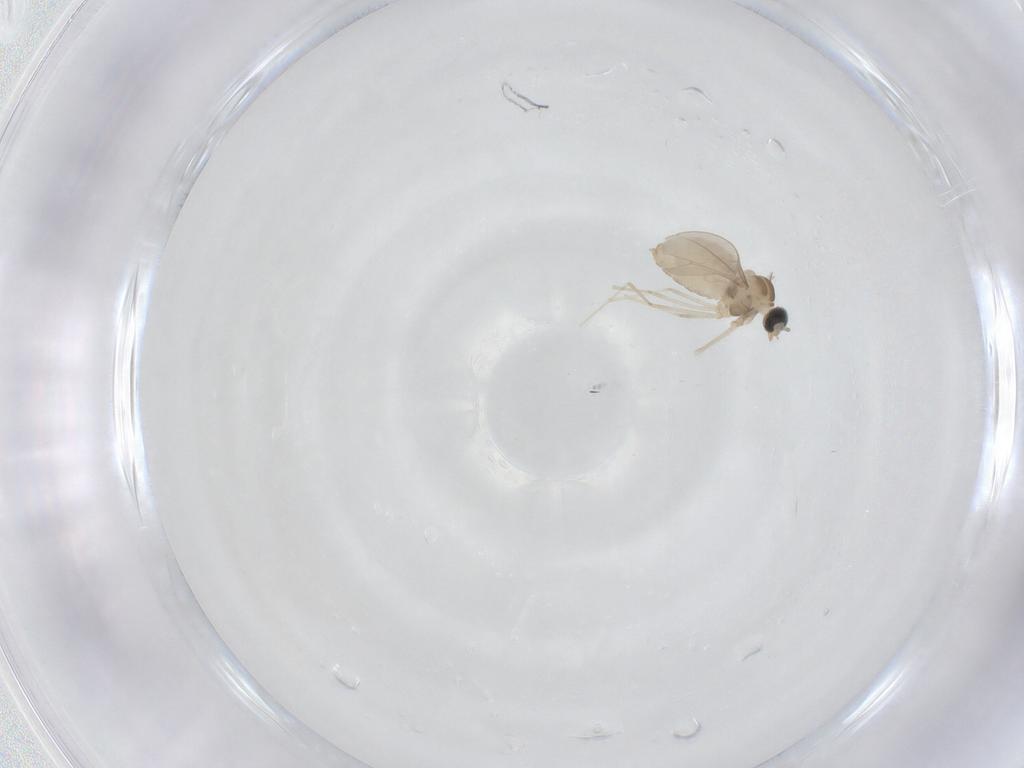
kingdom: Animalia
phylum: Arthropoda
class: Insecta
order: Diptera
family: Cecidomyiidae
